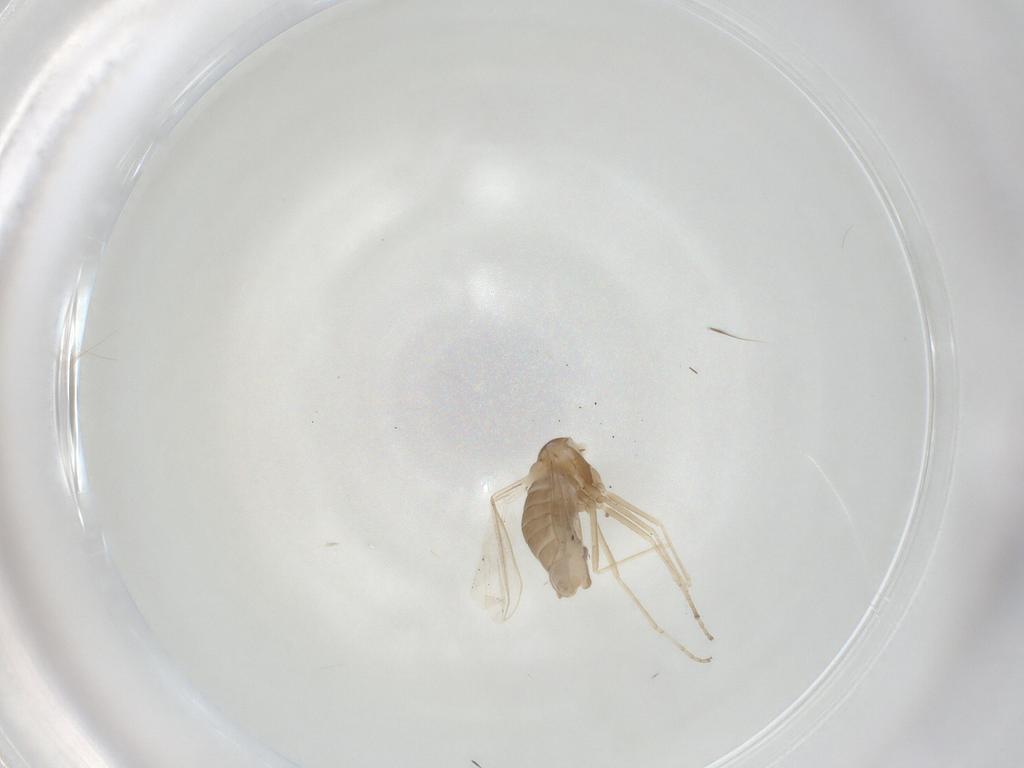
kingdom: Animalia
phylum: Arthropoda
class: Insecta
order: Diptera
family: Cecidomyiidae
